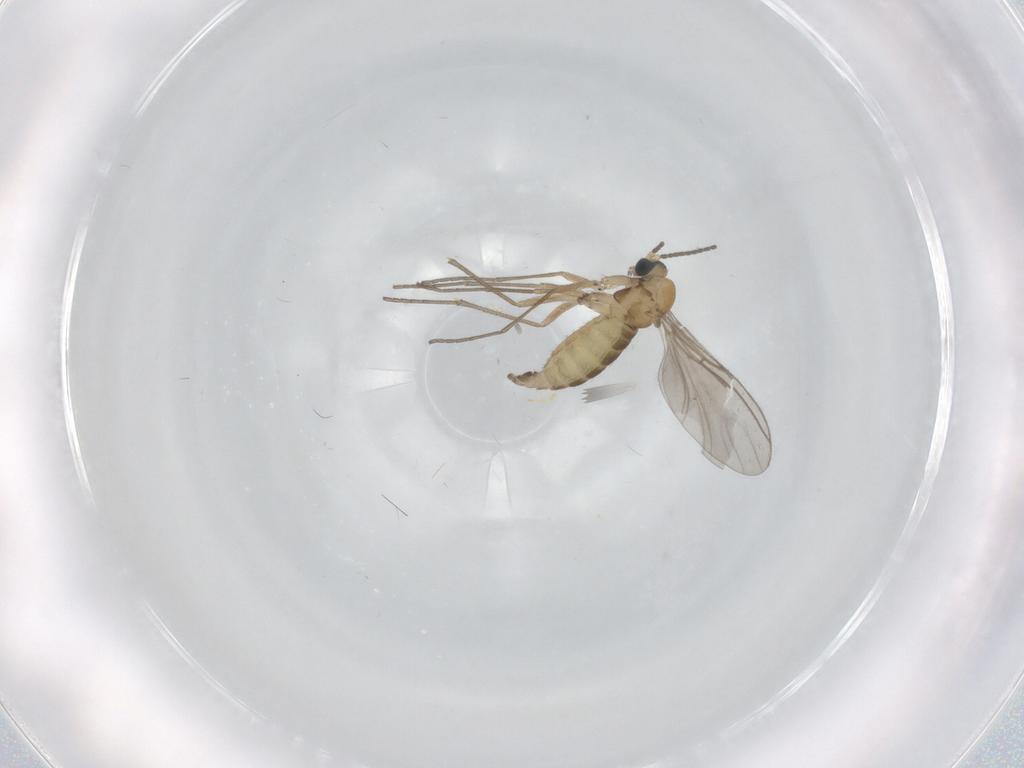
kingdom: Animalia
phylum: Arthropoda
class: Insecta
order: Diptera
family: Sciaridae
